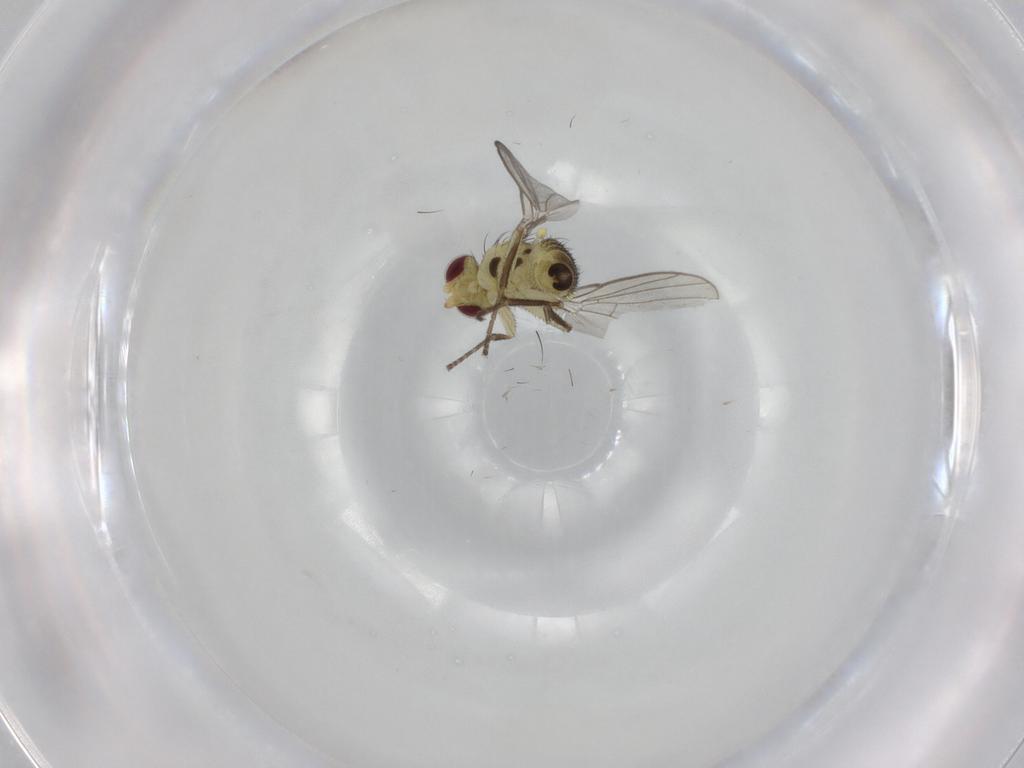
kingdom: Animalia
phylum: Arthropoda
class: Insecta
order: Diptera
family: Agromyzidae
